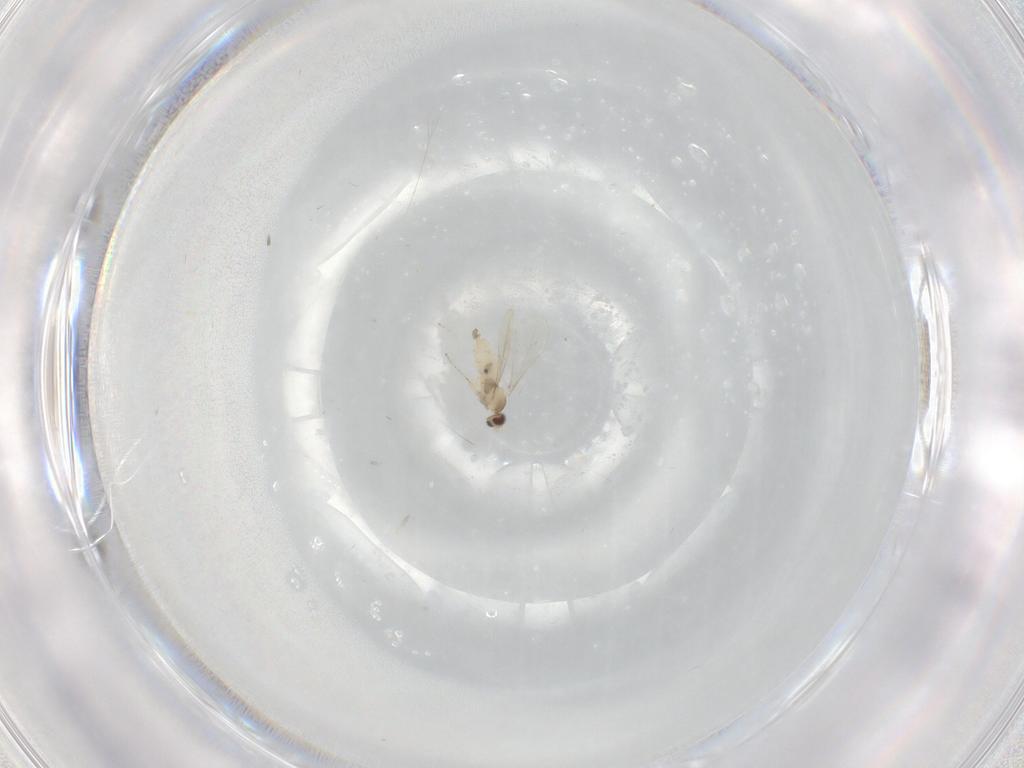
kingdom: Animalia
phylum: Arthropoda
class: Insecta
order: Diptera
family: Cecidomyiidae
